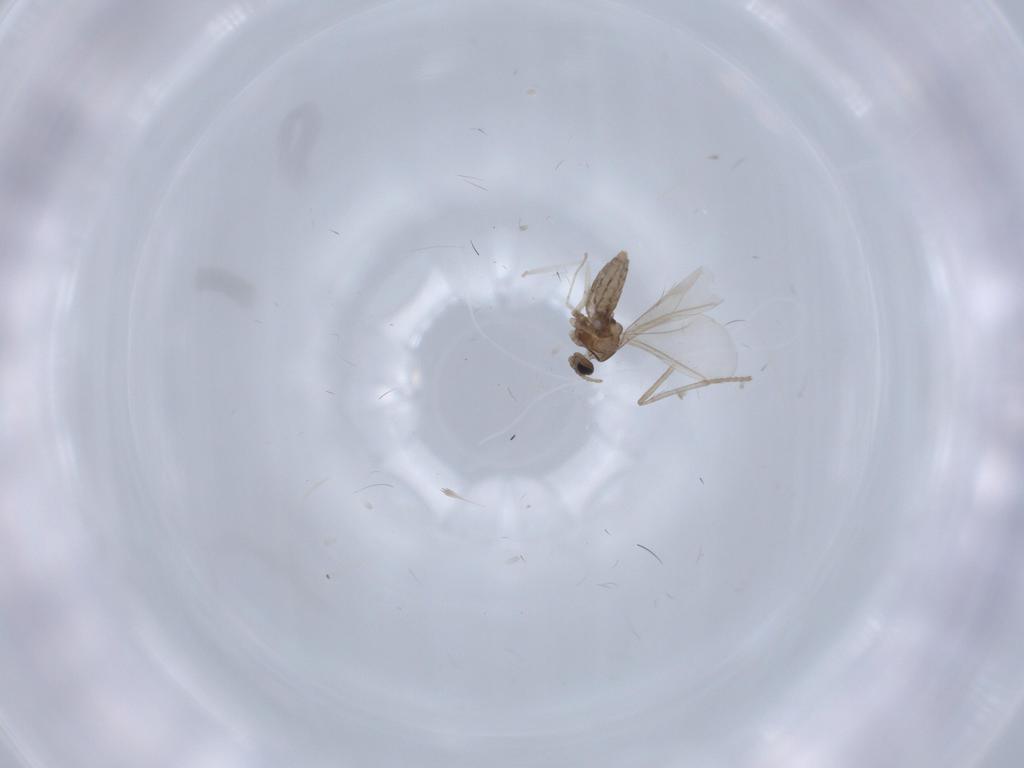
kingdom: Animalia
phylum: Arthropoda
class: Insecta
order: Diptera
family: Cecidomyiidae
